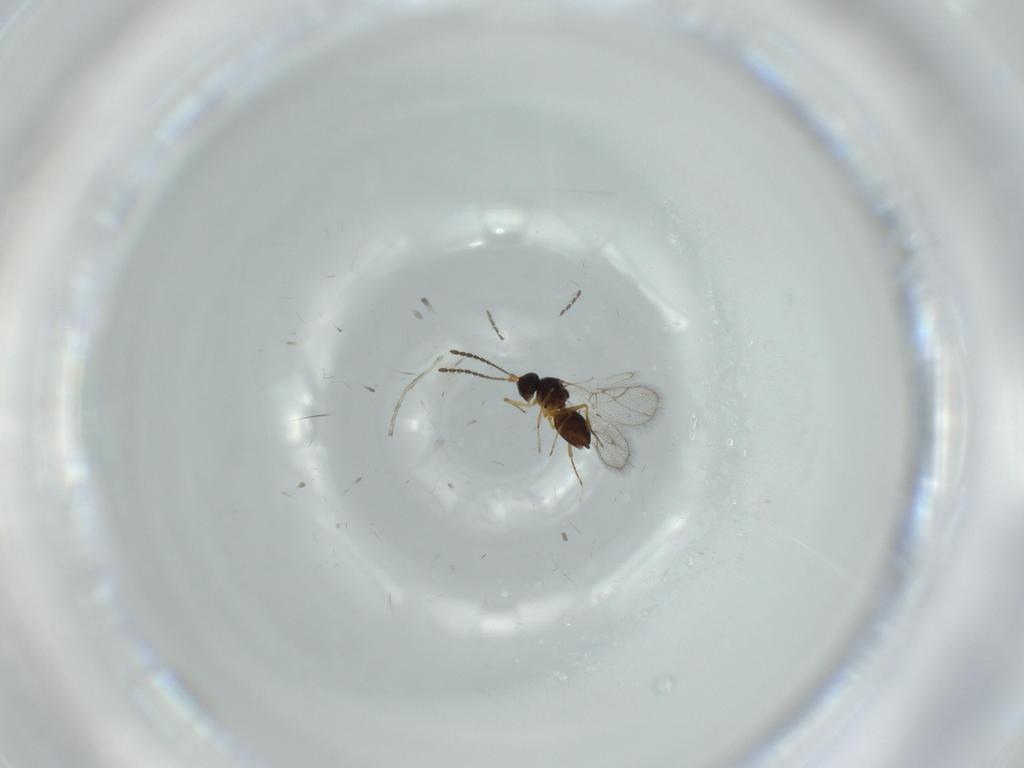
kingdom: Animalia
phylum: Arthropoda
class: Insecta
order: Hymenoptera
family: Figitidae
